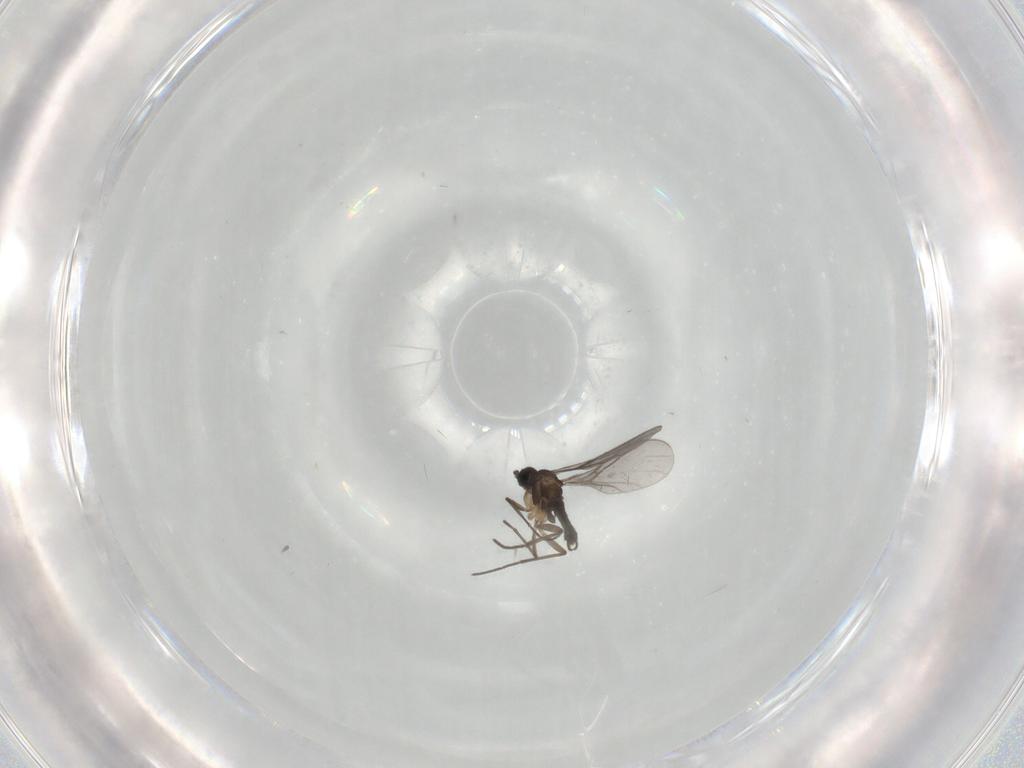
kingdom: Animalia
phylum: Arthropoda
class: Insecta
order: Diptera
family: Sciaridae
